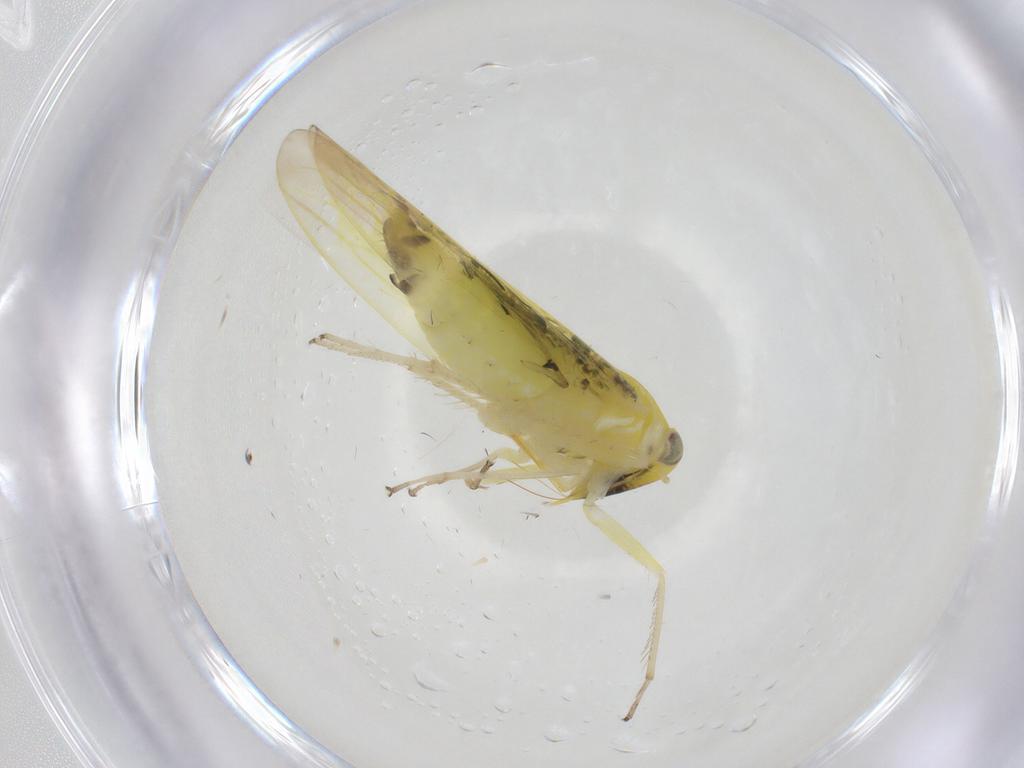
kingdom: Animalia
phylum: Arthropoda
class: Insecta
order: Hemiptera
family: Cicadellidae
